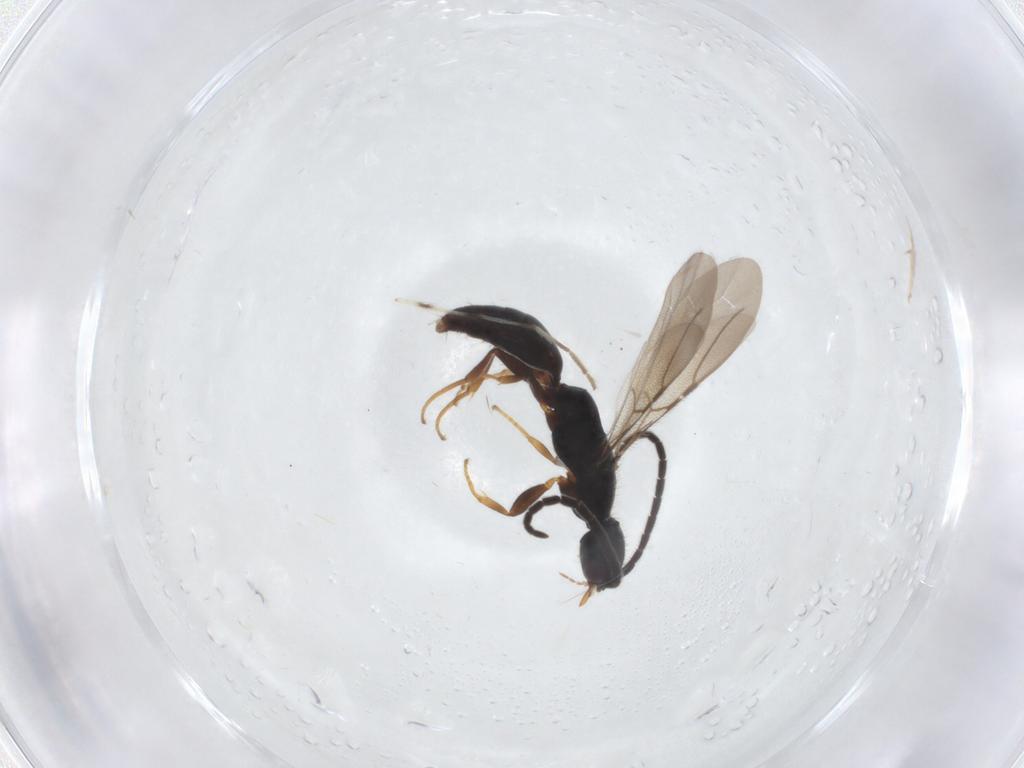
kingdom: Animalia
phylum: Arthropoda
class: Insecta
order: Hymenoptera
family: Bethylidae
